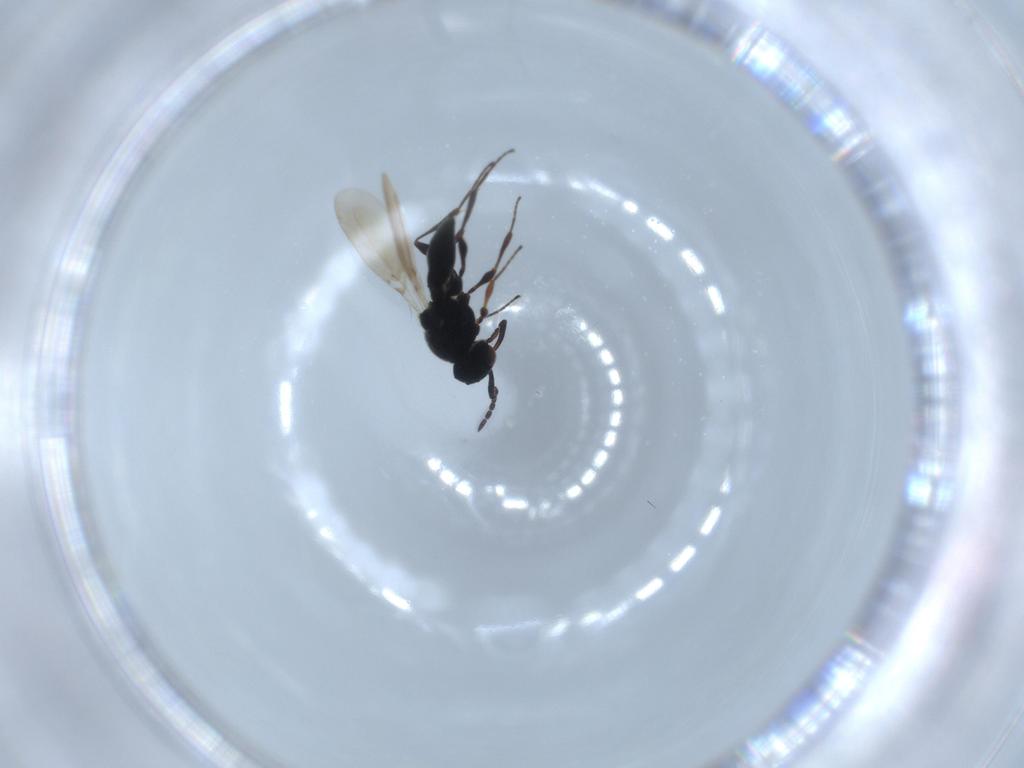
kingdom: Animalia
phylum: Arthropoda
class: Insecta
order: Hymenoptera
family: Platygastridae
